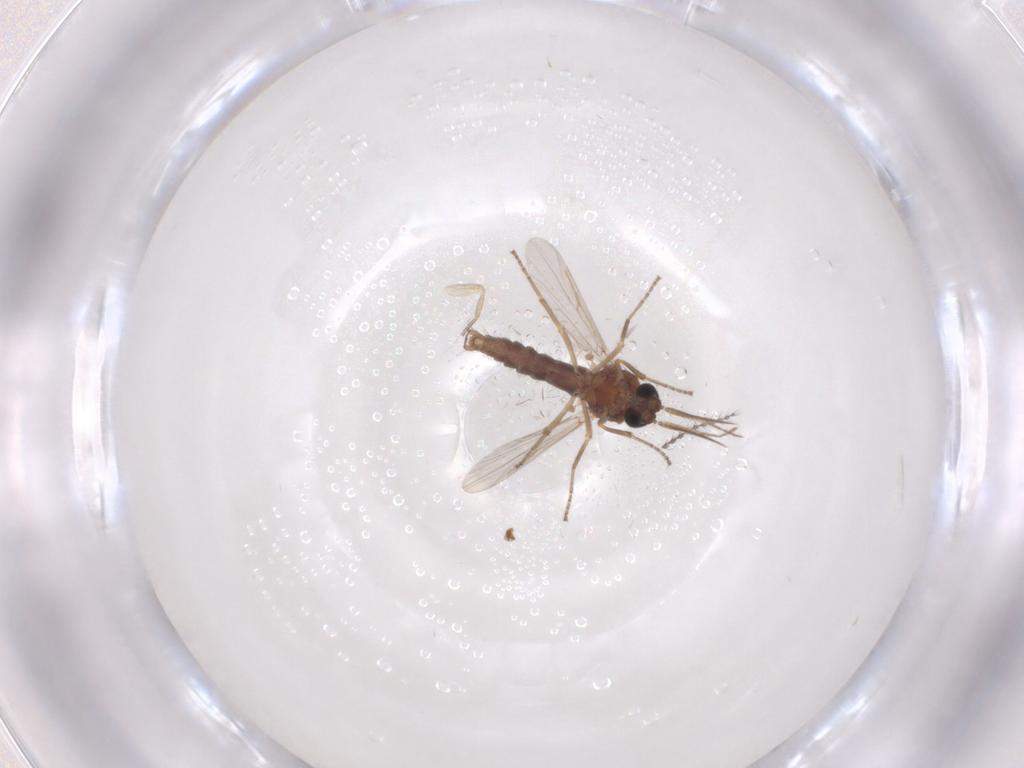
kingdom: Animalia
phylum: Arthropoda
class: Insecta
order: Diptera
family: Ceratopogonidae
